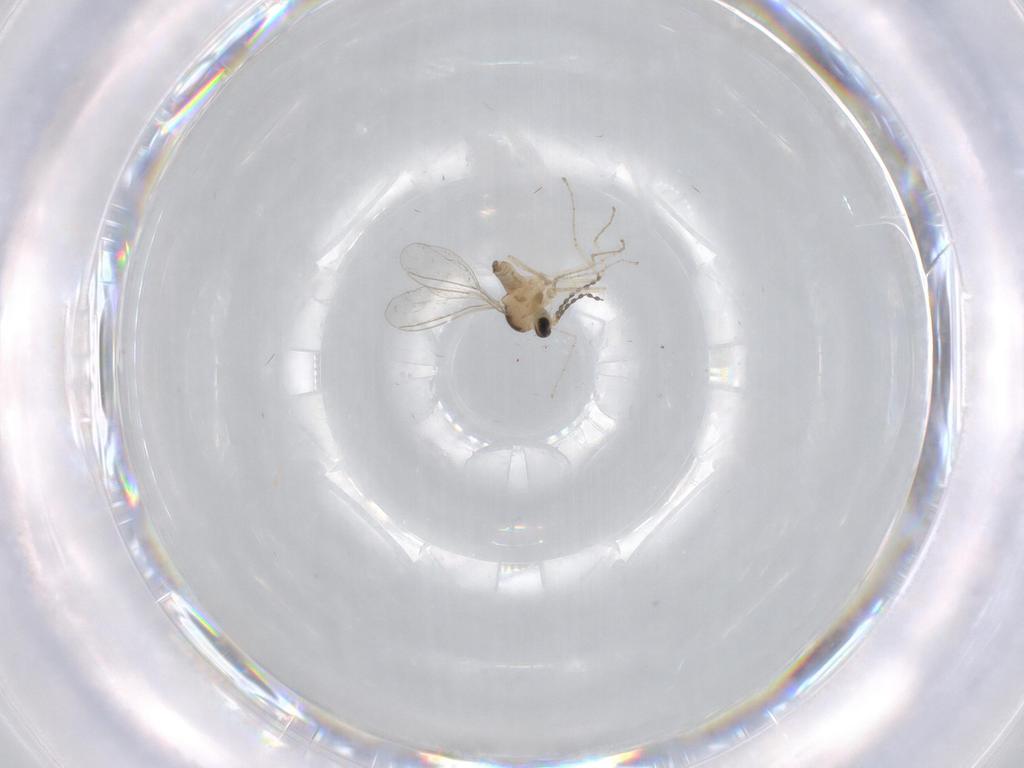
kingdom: Animalia
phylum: Arthropoda
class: Insecta
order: Diptera
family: Cecidomyiidae
